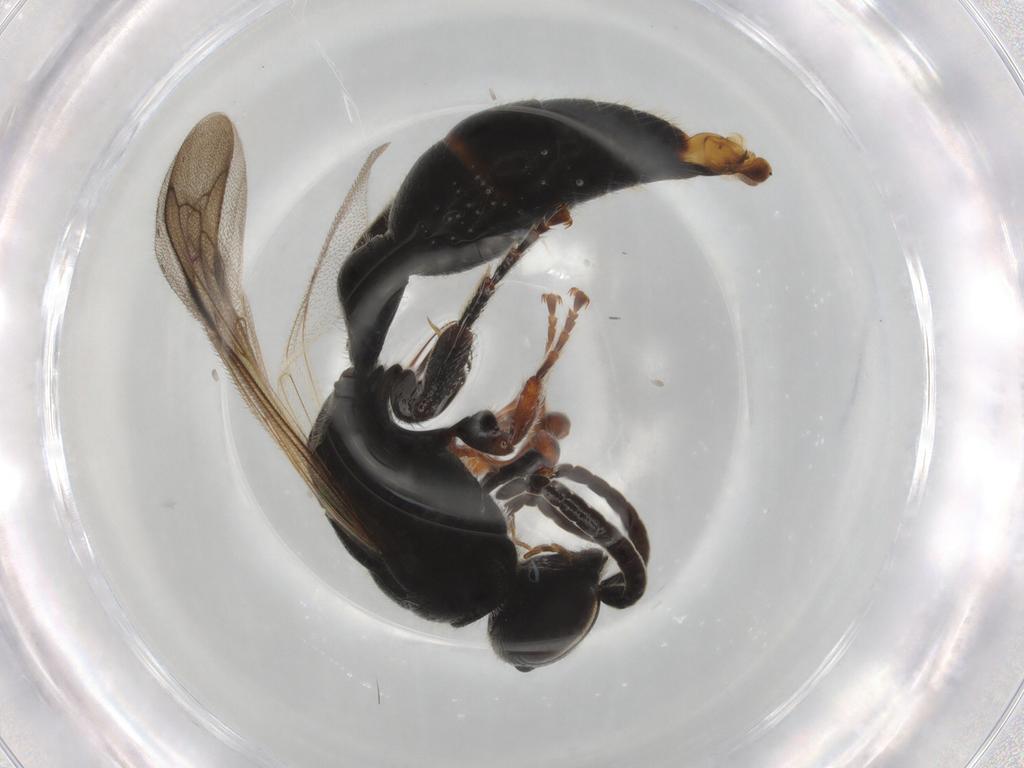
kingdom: Animalia
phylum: Arthropoda
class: Insecta
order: Hymenoptera
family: Tiphiidae
